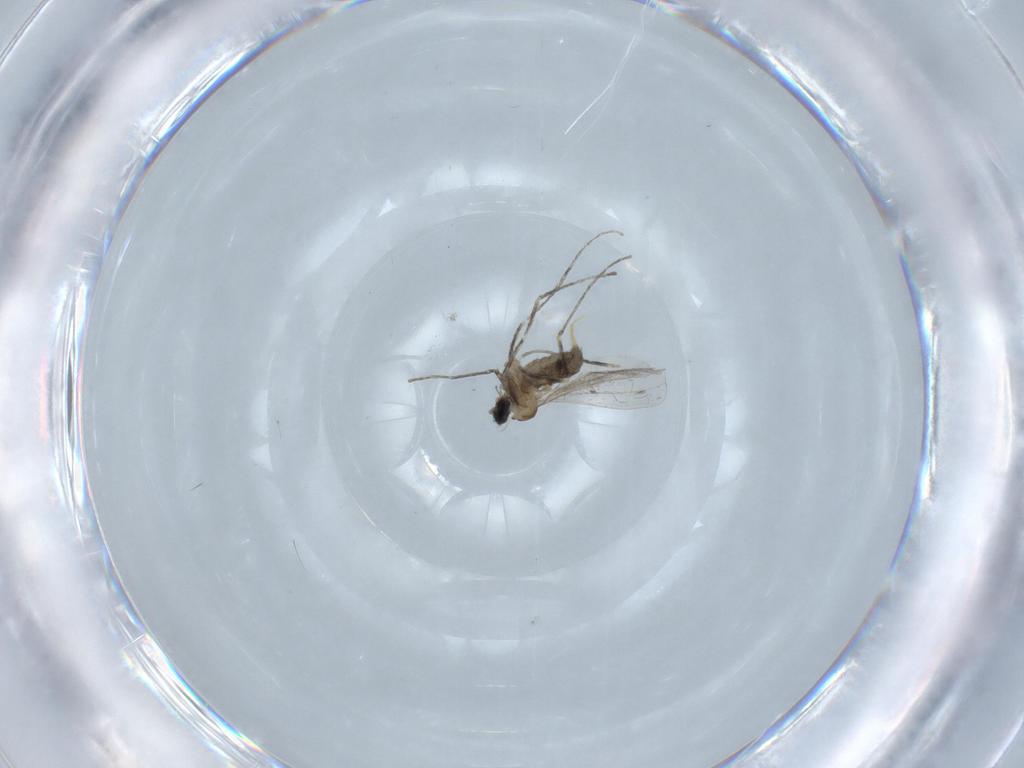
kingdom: Animalia
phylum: Arthropoda
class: Insecta
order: Diptera
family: Cecidomyiidae
